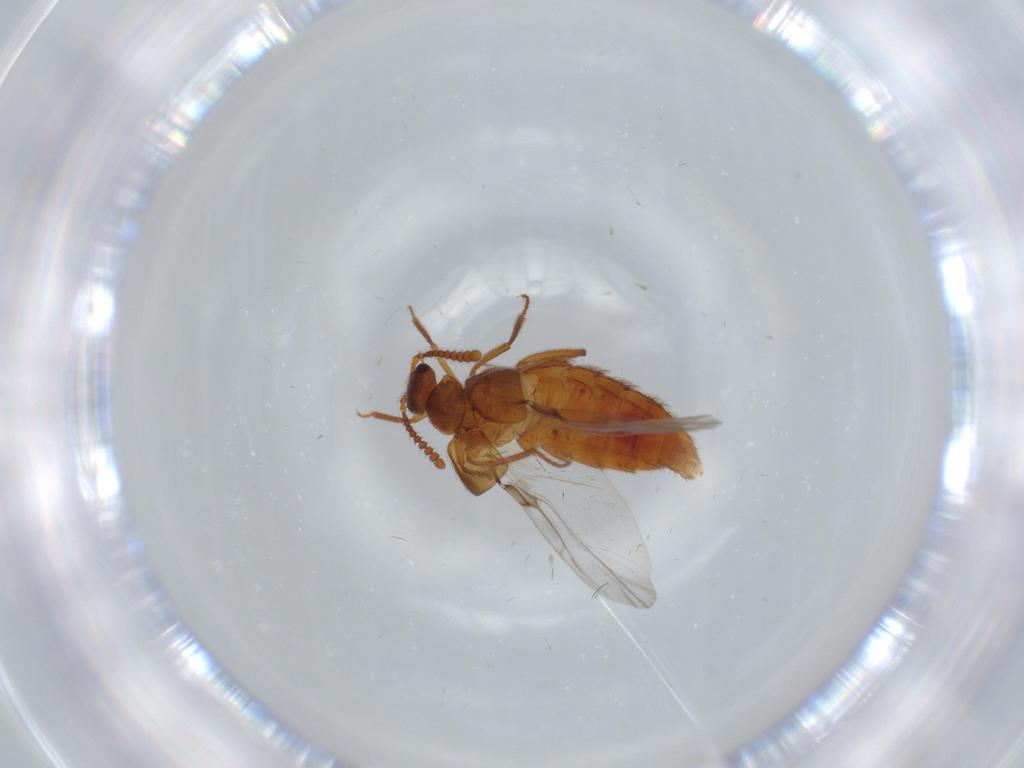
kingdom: Animalia
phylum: Arthropoda
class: Insecta
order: Coleoptera
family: Staphylinidae
